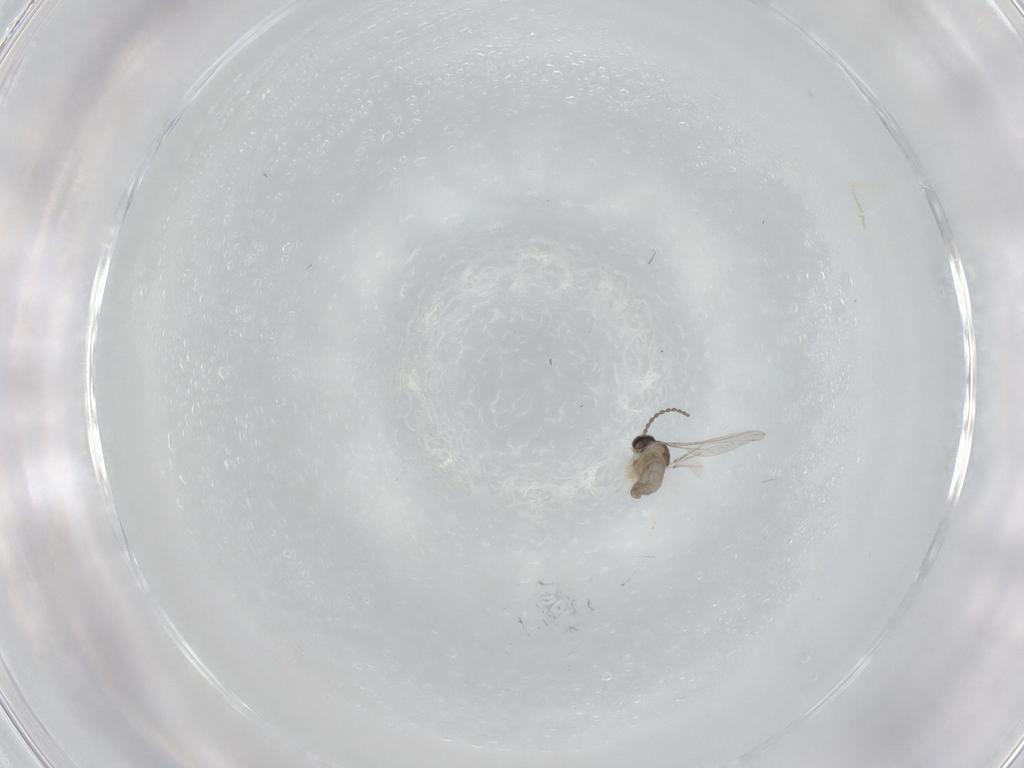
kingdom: Animalia
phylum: Arthropoda
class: Insecta
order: Diptera
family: Cecidomyiidae
